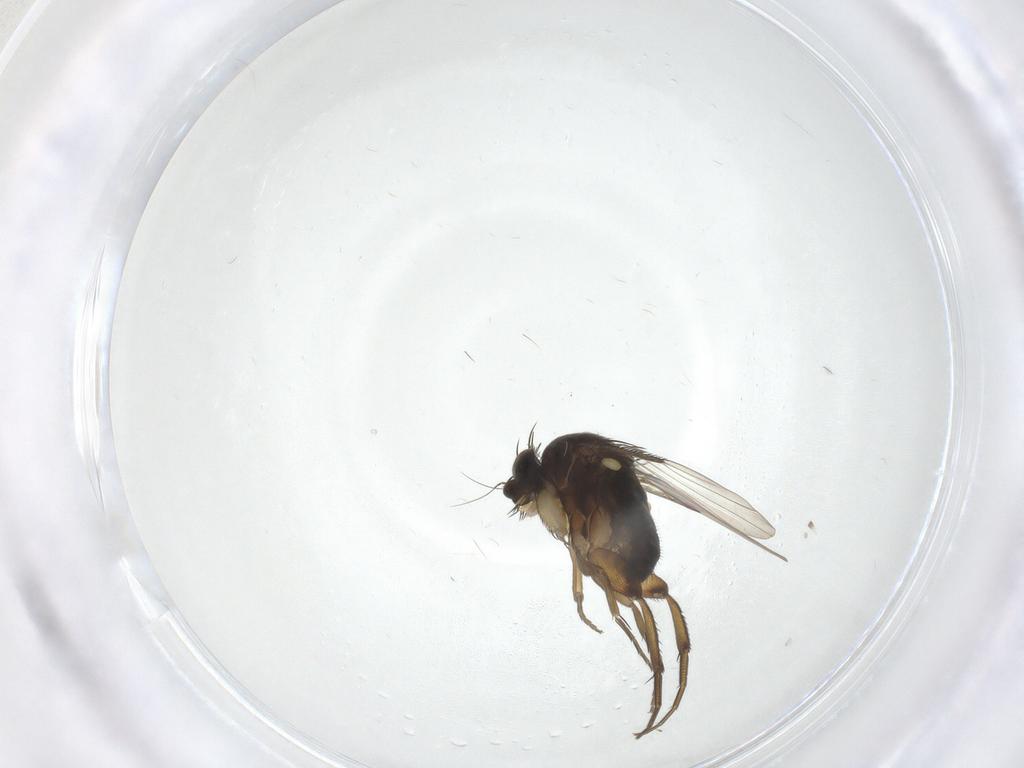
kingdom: Animalia
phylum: Arthropoda
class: Insecta
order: Diptera
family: Phoridae
